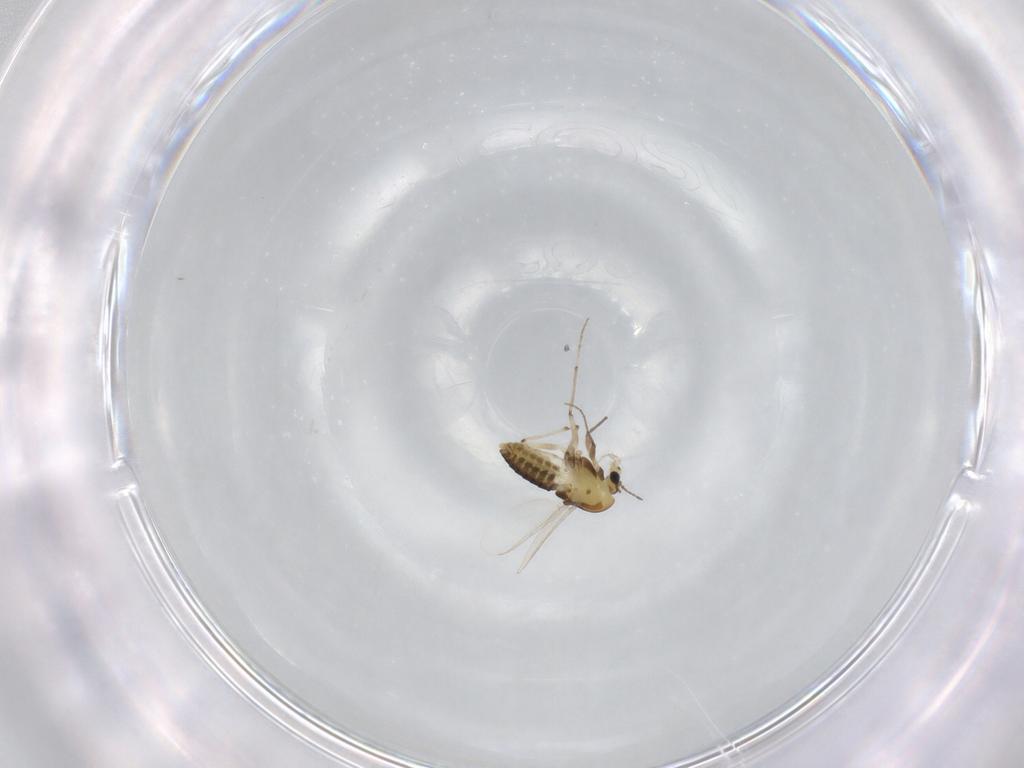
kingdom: Animalia
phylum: Arthropoda
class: Insecta
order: Diptera
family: Chironomidae
